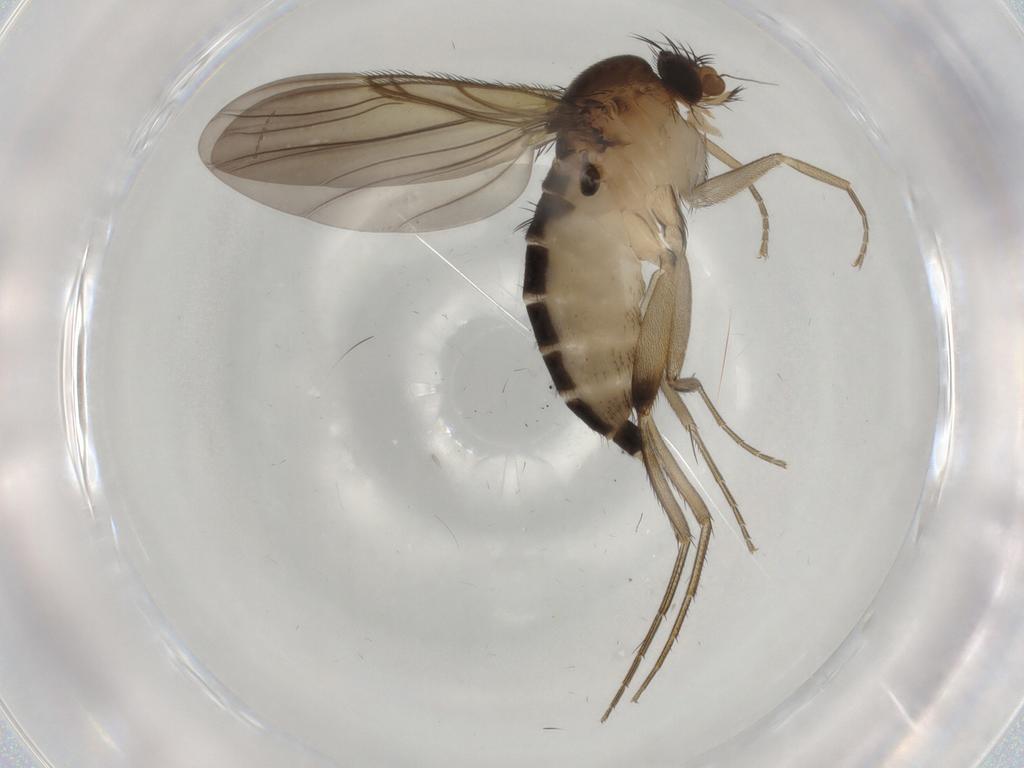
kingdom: Animalia
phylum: Arthropoda
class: Insecta
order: Diptera
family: Phoridae
